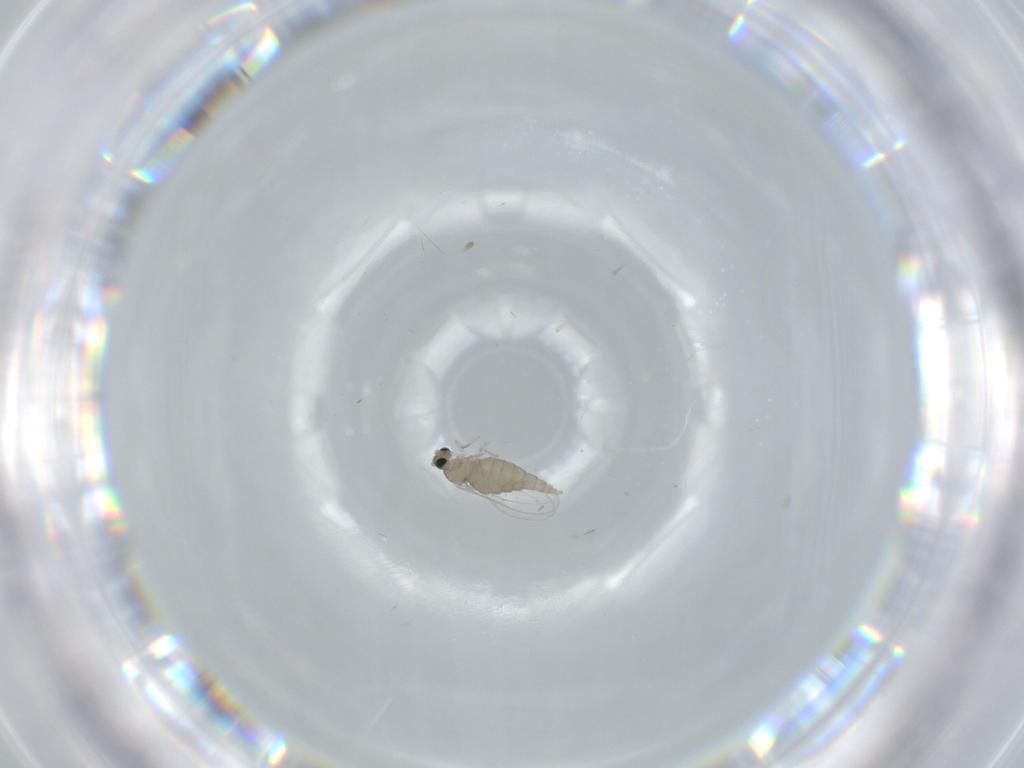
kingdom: Animalia
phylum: Arthropoda
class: Insecta
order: Diptera
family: Cecidomyiidae
